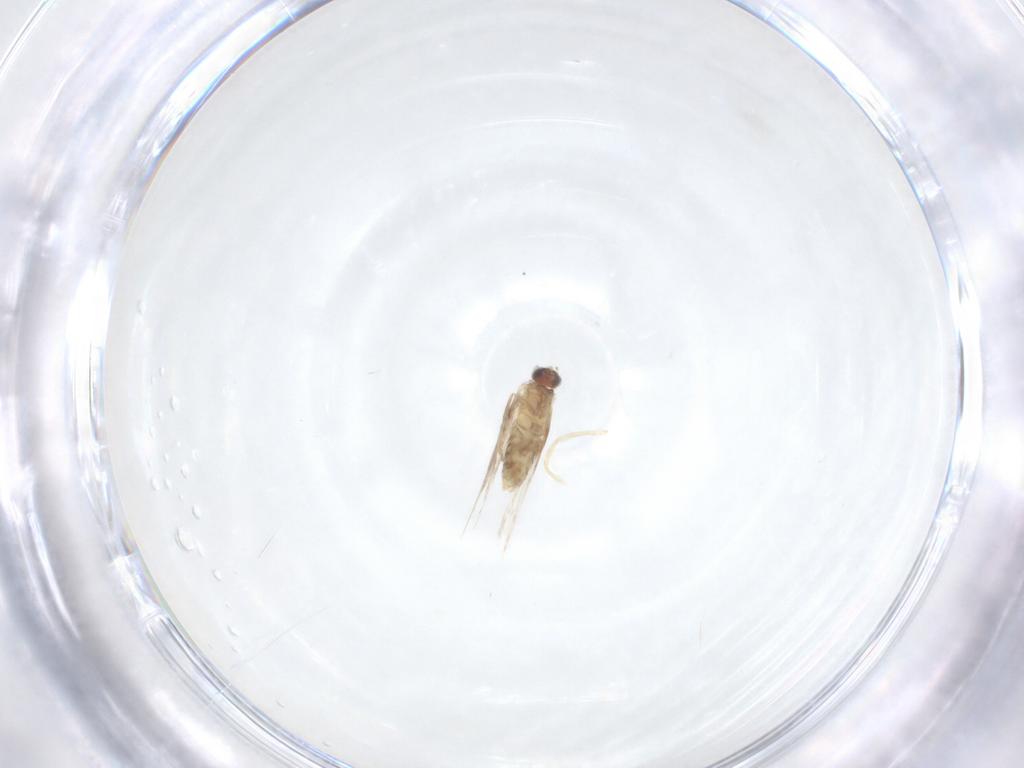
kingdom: Animalia
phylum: Arthropoda
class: Insecta
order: Lepidoptera
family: Nepticulidae
